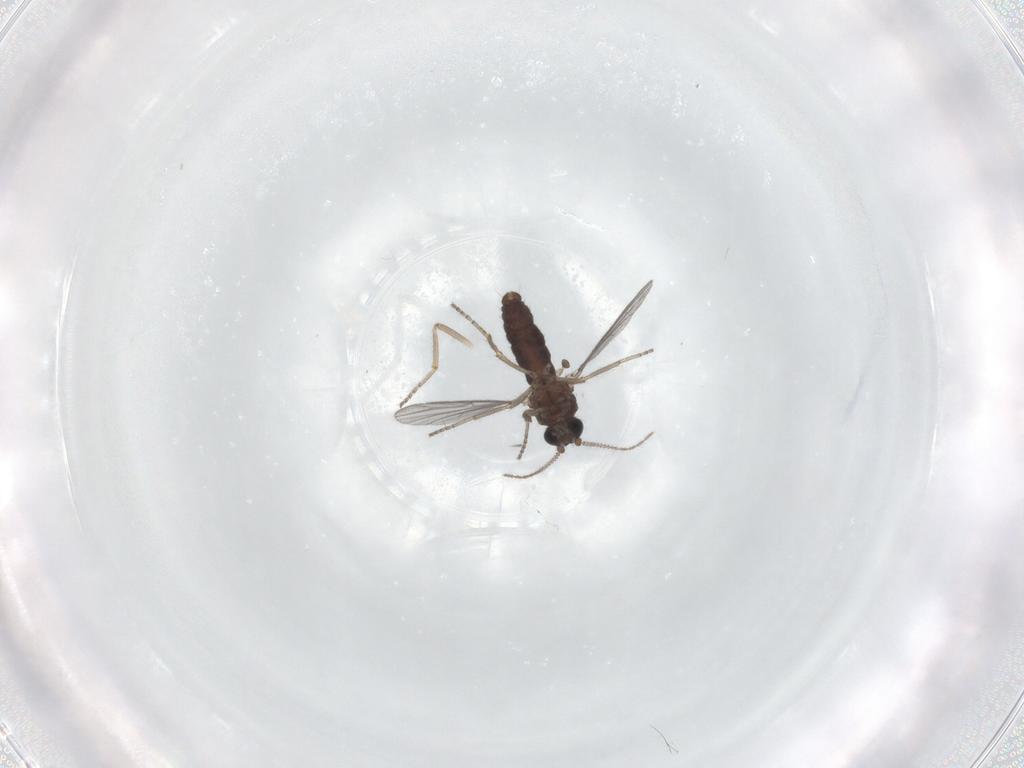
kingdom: Animalia
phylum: Arthropoda
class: Insecta
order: Diptera
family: Ceratopogonidae
